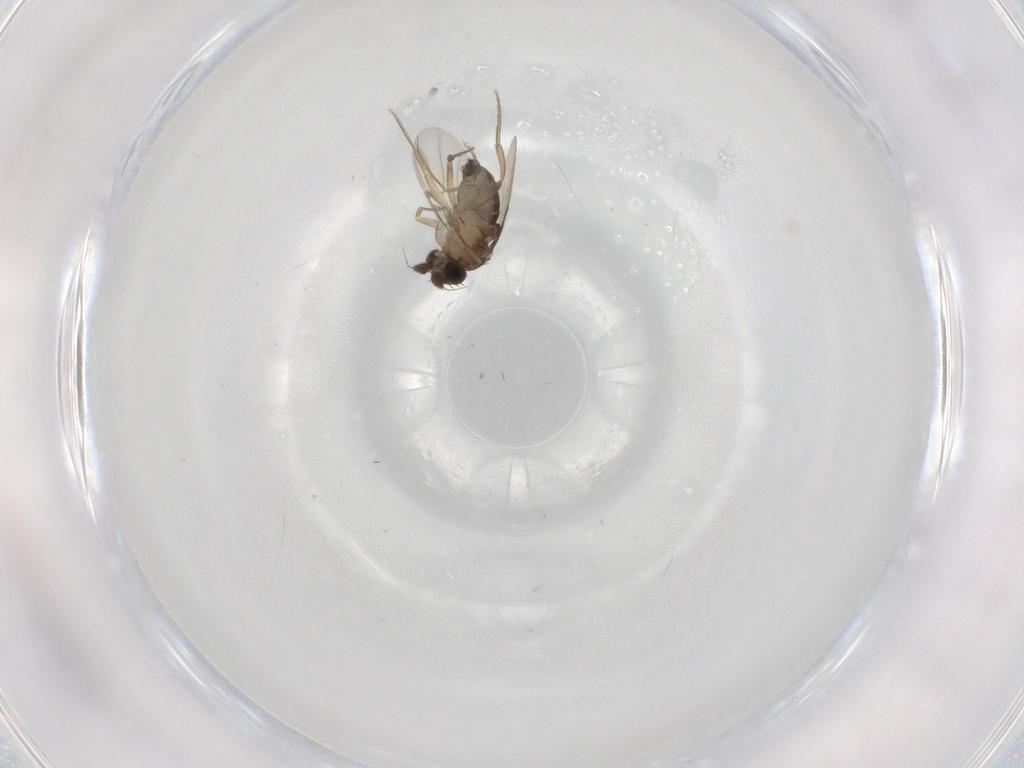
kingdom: Animalia
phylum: Arthropoda
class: Insecta
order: Diptera
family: Phoridae
